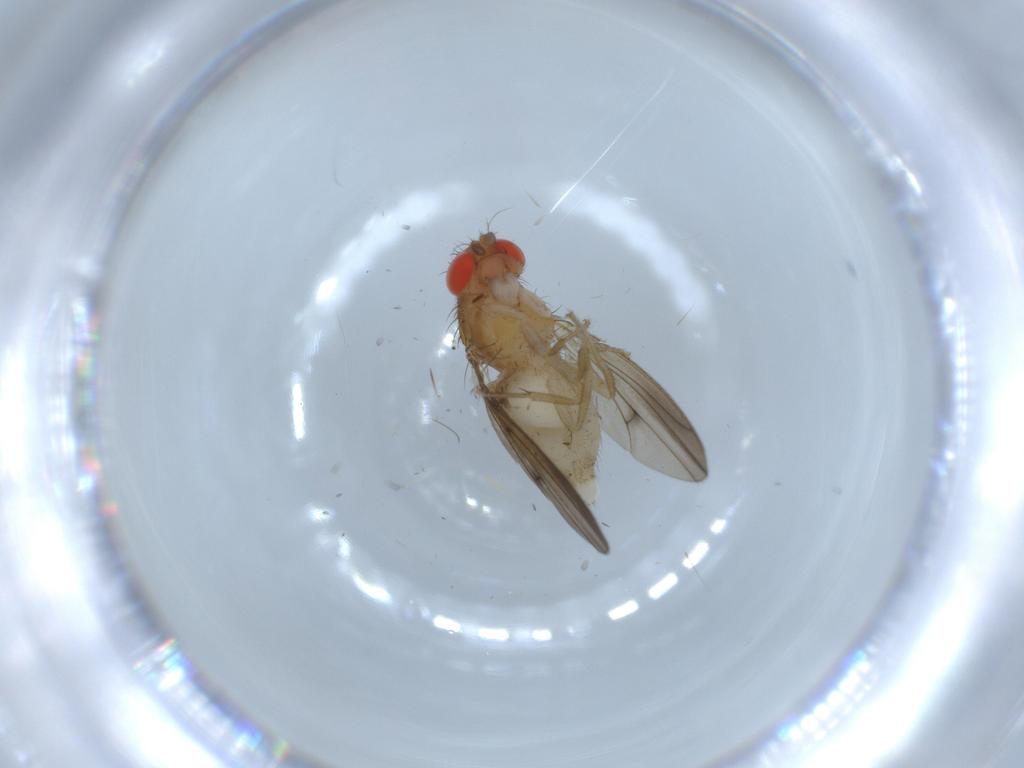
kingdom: Animalia
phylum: Arthropoda
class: Insecta
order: Diptera
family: Drosophilidae
